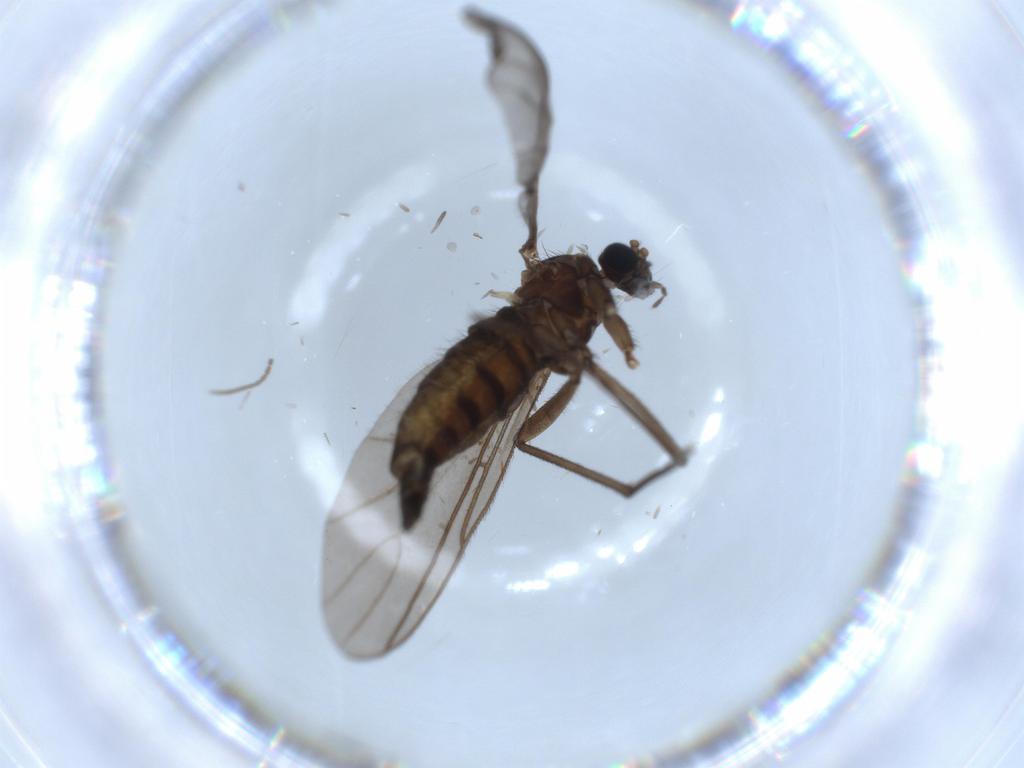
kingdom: Animalia
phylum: Arthropoda
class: Insecta
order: Diptera
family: Sciaridae
